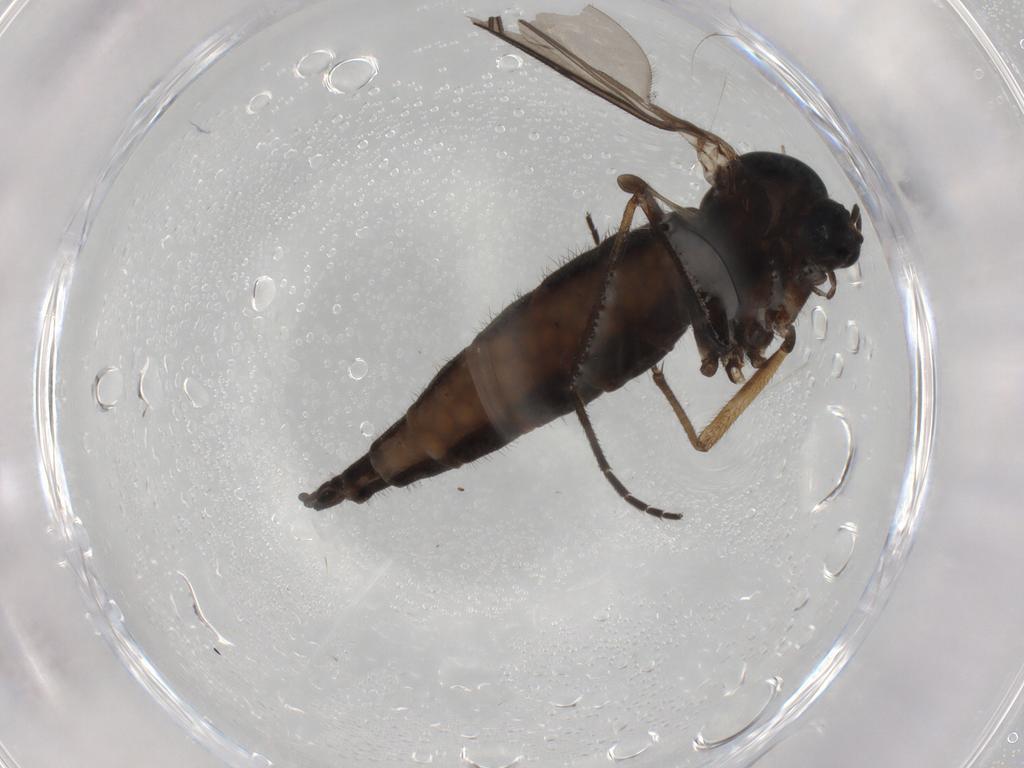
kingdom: Animalia
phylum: Arthropoda
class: Insecta
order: Diptera
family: Sciaridae
